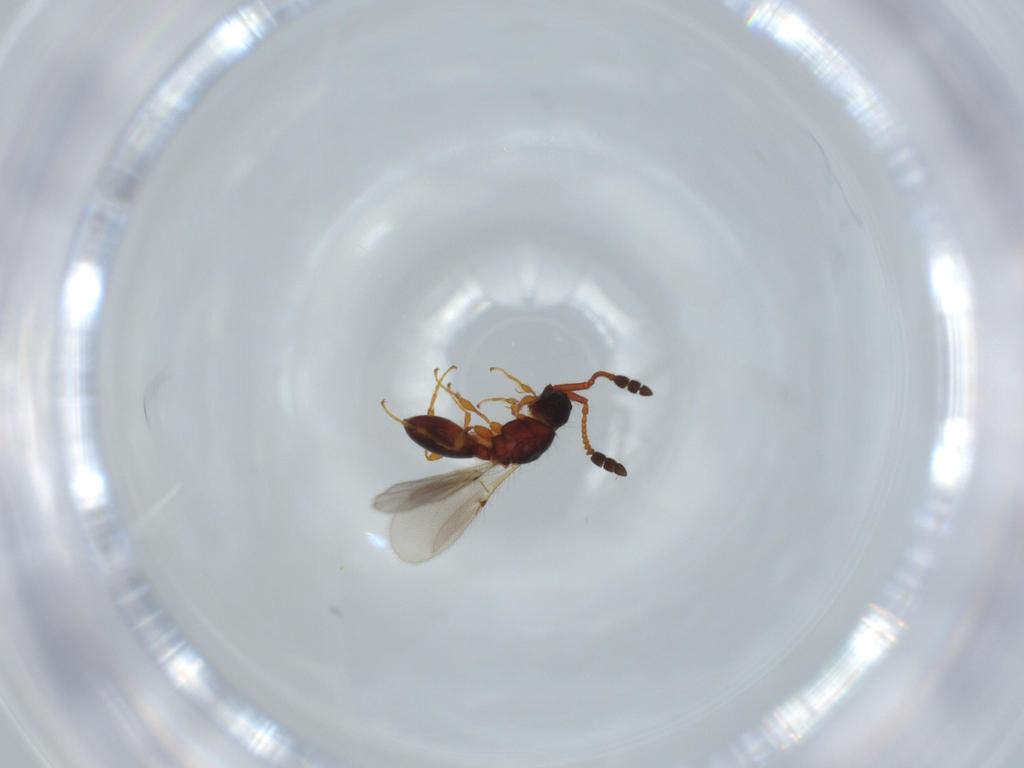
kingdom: Animalia
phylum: Arthropoda
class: Insecta
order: Hymenoptera
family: Diapriidae
